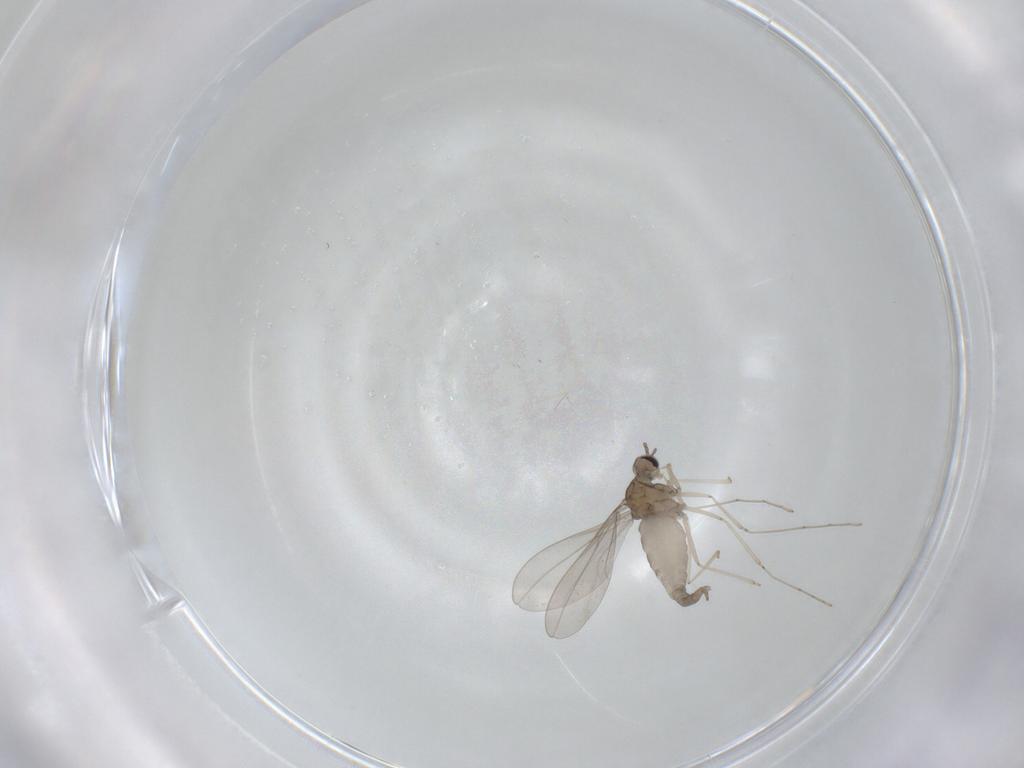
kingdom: Animalia
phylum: Arthropoda
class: Insecta
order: Diptera
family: Cecidomyiidae
